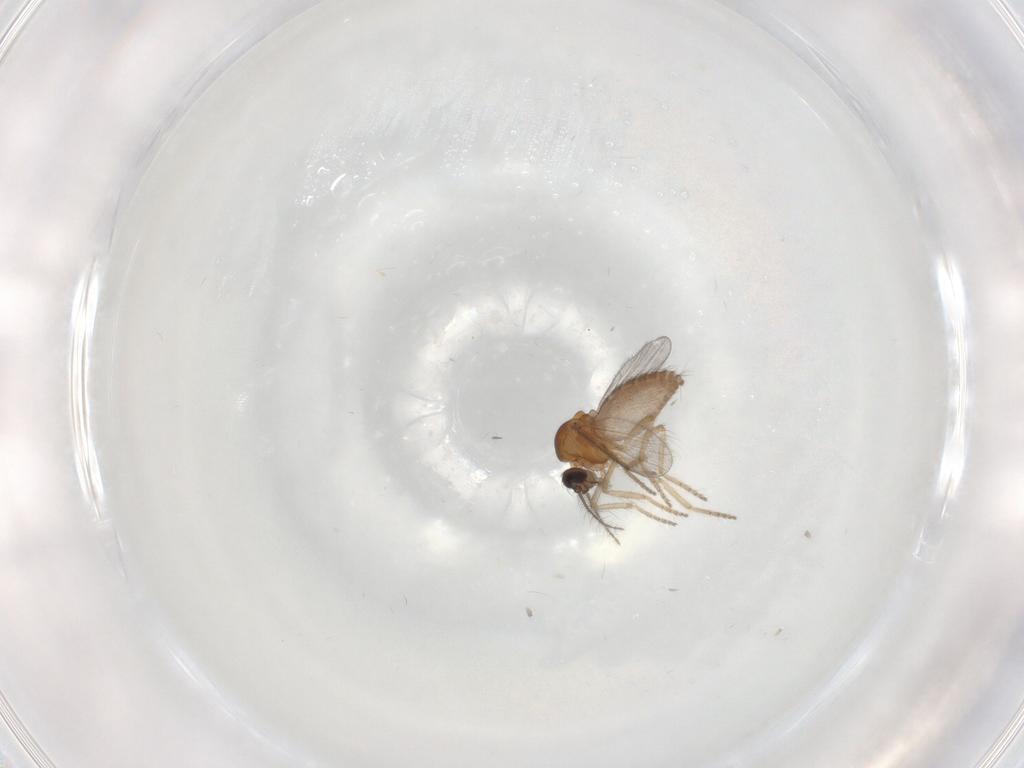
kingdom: Animalia
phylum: Arthropoda
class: Insecta
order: Diptera
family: Ceratopogonidae
